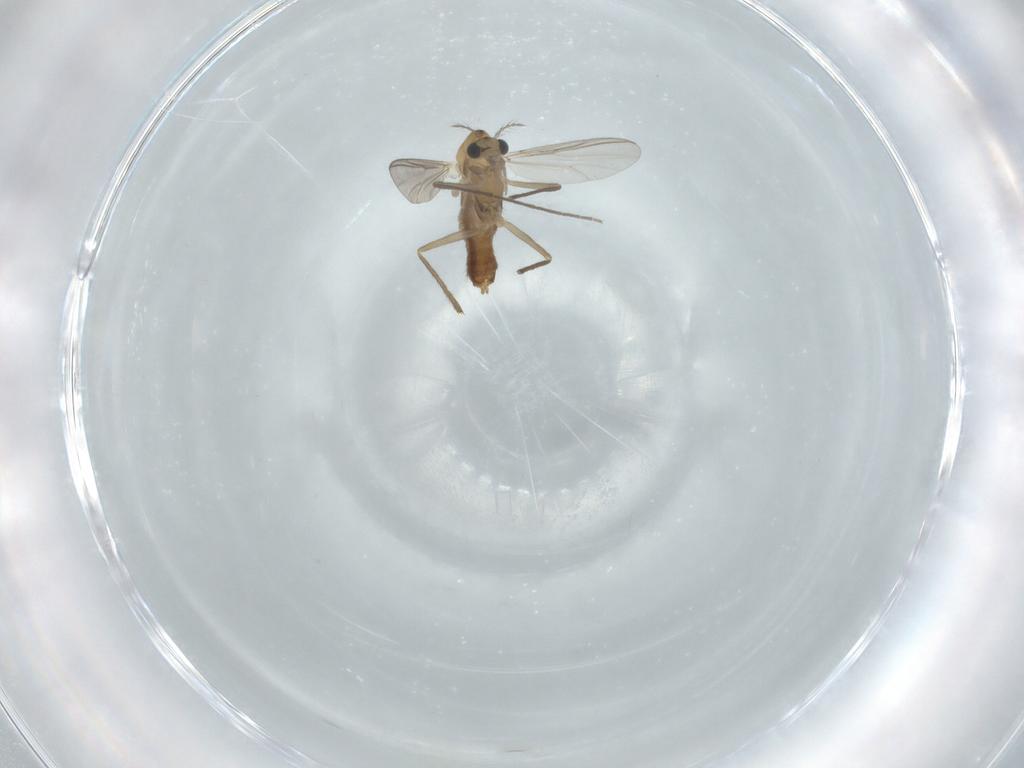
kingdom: Animalia
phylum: Arthropoda
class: Insecta
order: Diptera
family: Chironomidae
